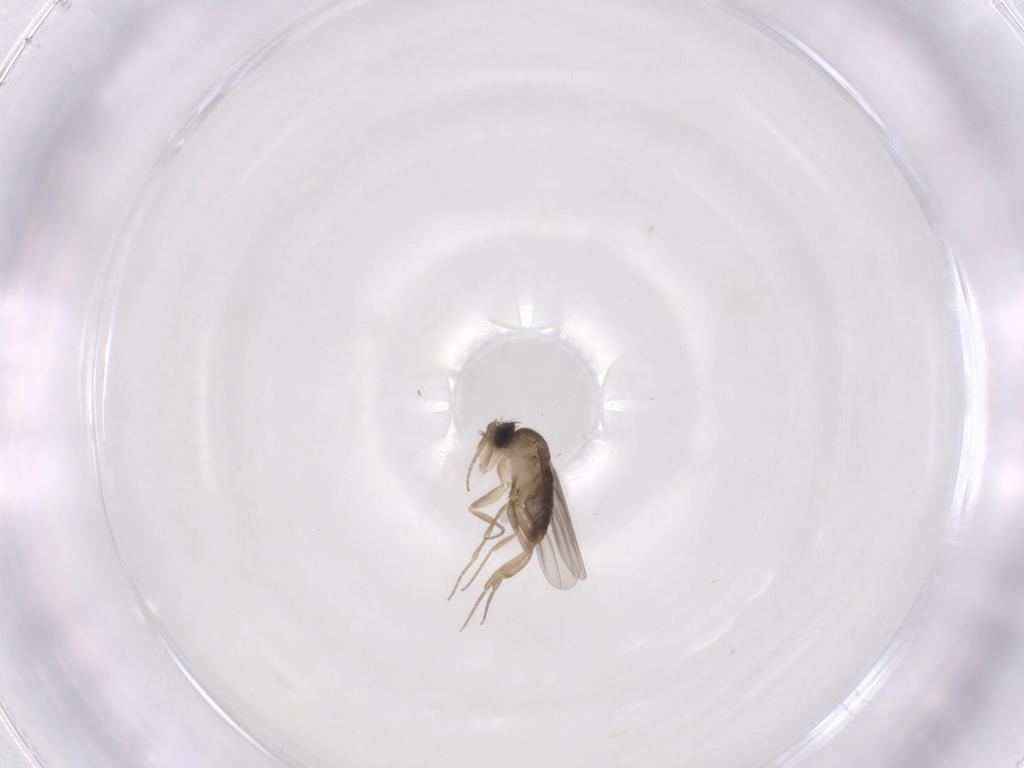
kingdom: Animalia
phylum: Arthropoda
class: Insecta
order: Diptera
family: Phoridae
